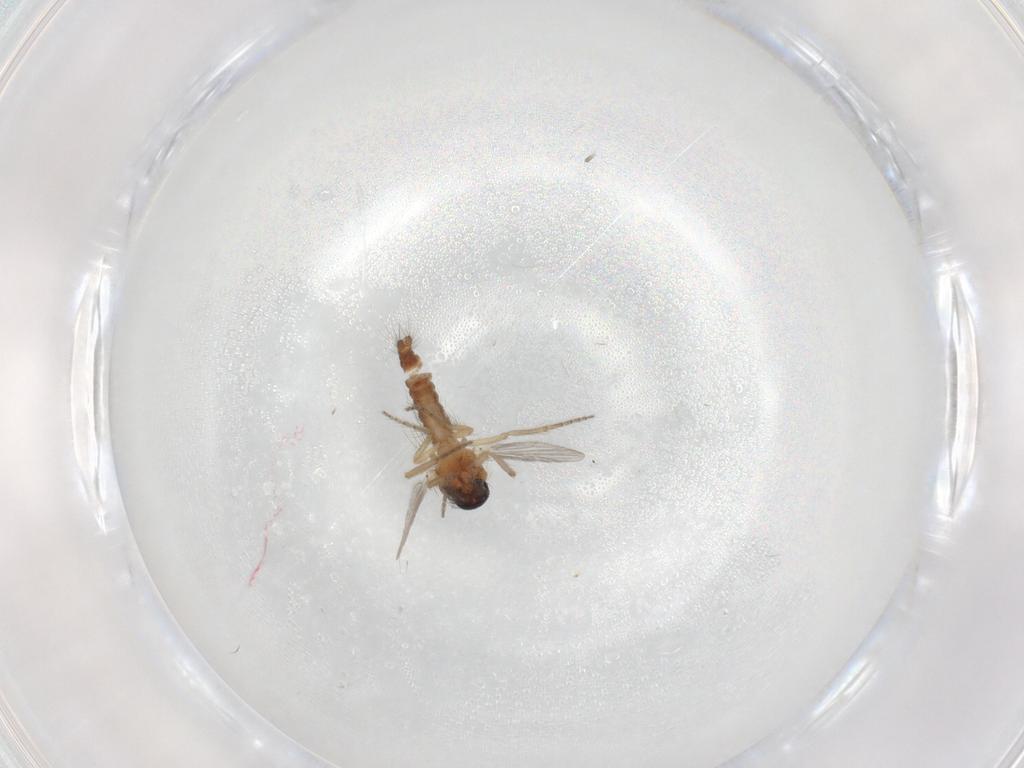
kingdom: Animalia
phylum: Arthropoda
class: Insecta
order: Diptera
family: Ceratopogonidae
